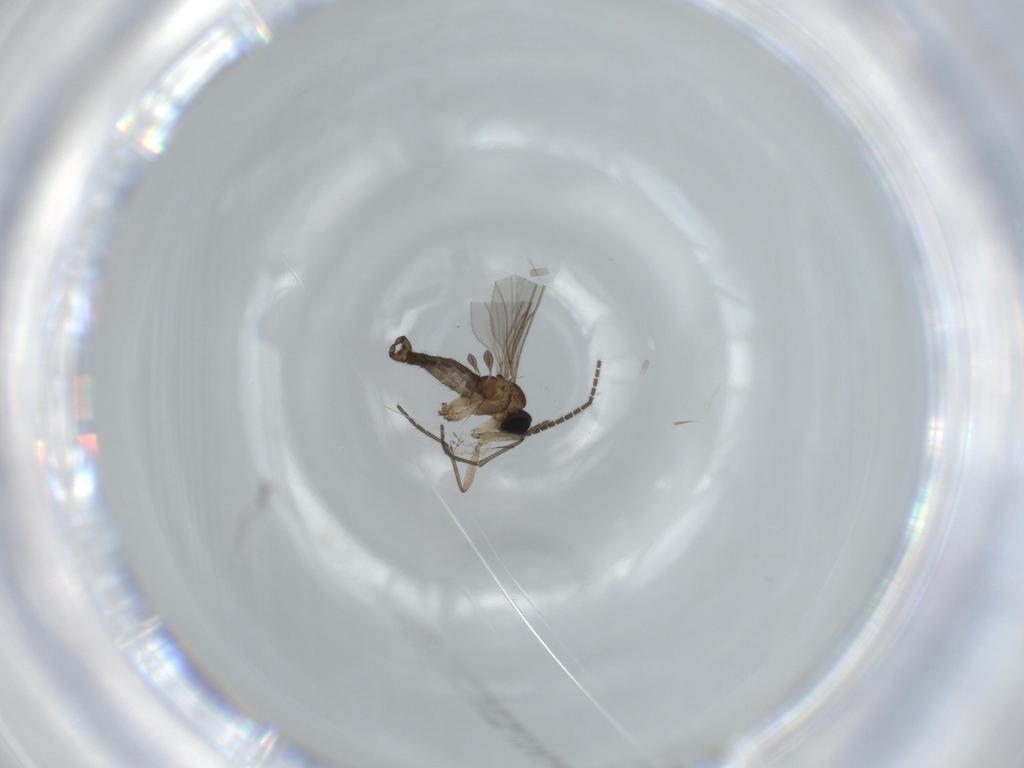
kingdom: Animalia
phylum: Arthropoda
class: Insecta
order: Diptera
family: Sciaridae
